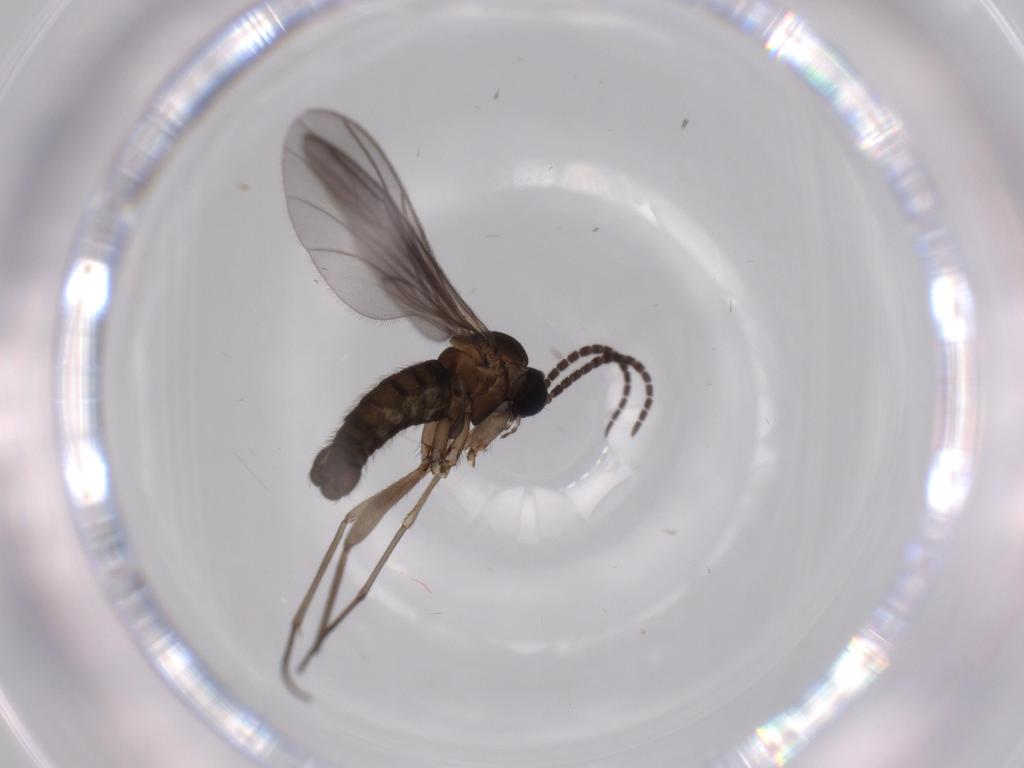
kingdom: Animalia
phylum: Arthropoda
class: Insecta
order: Diptera
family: Sciaridae
